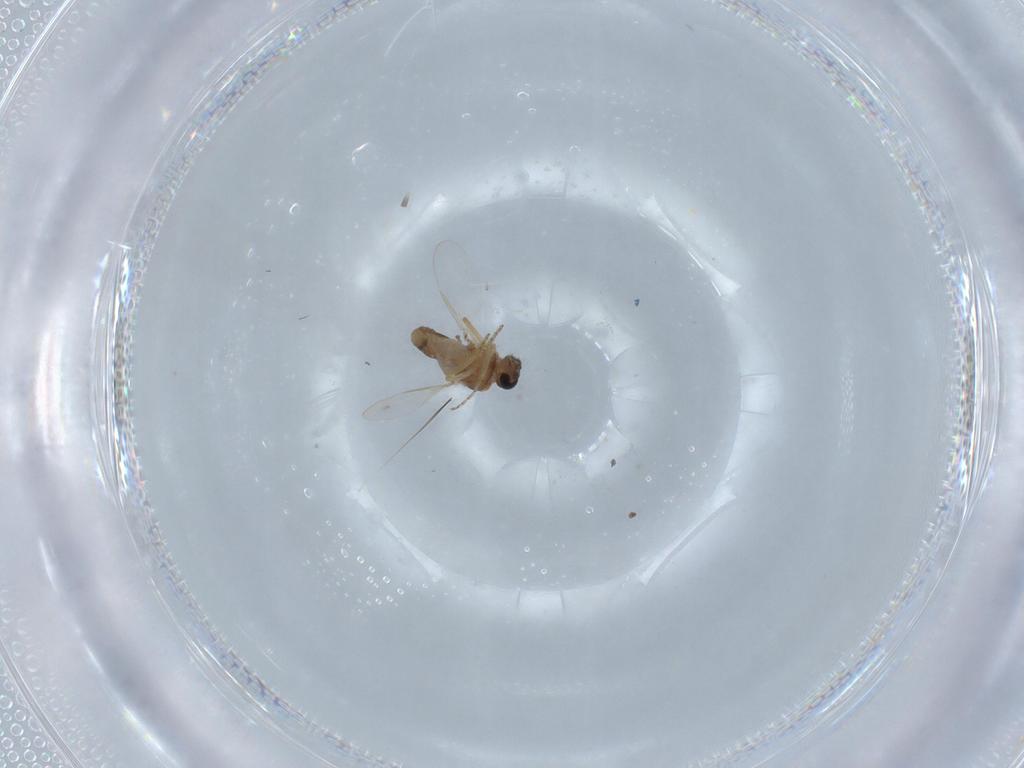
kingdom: Animalia
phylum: Arthropoda
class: Insecta
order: Diptera
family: Ceratopogonidae
